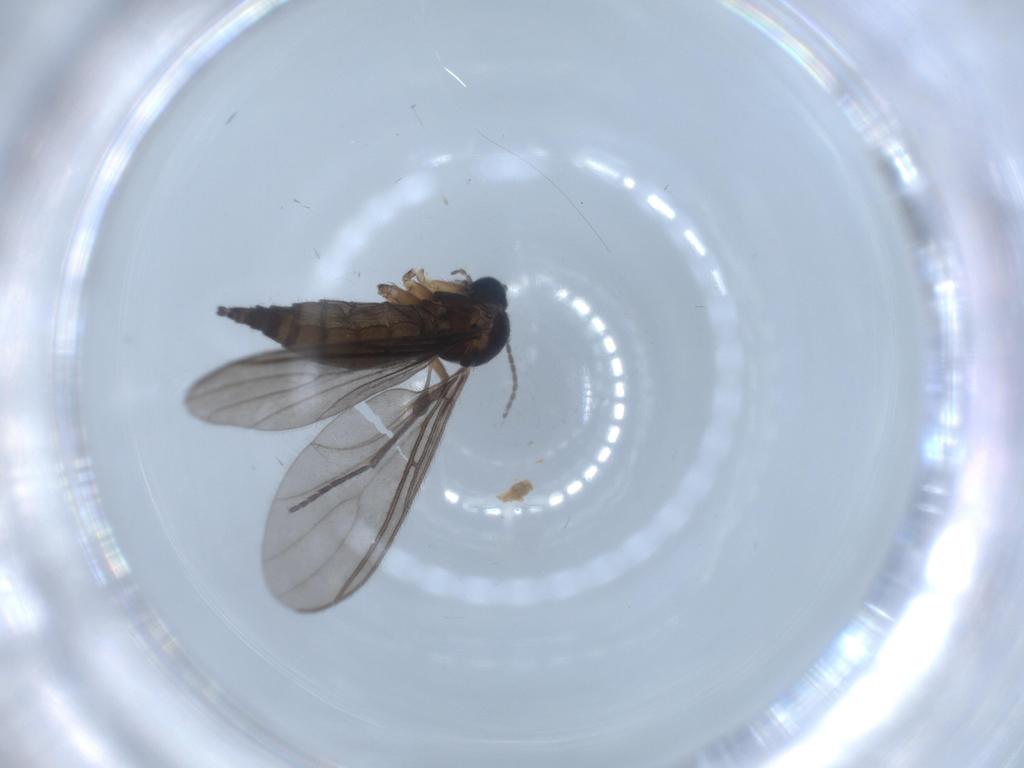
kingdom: Animalia
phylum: Arthropoda
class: Insecta
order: Diptera
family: Sciaridae
